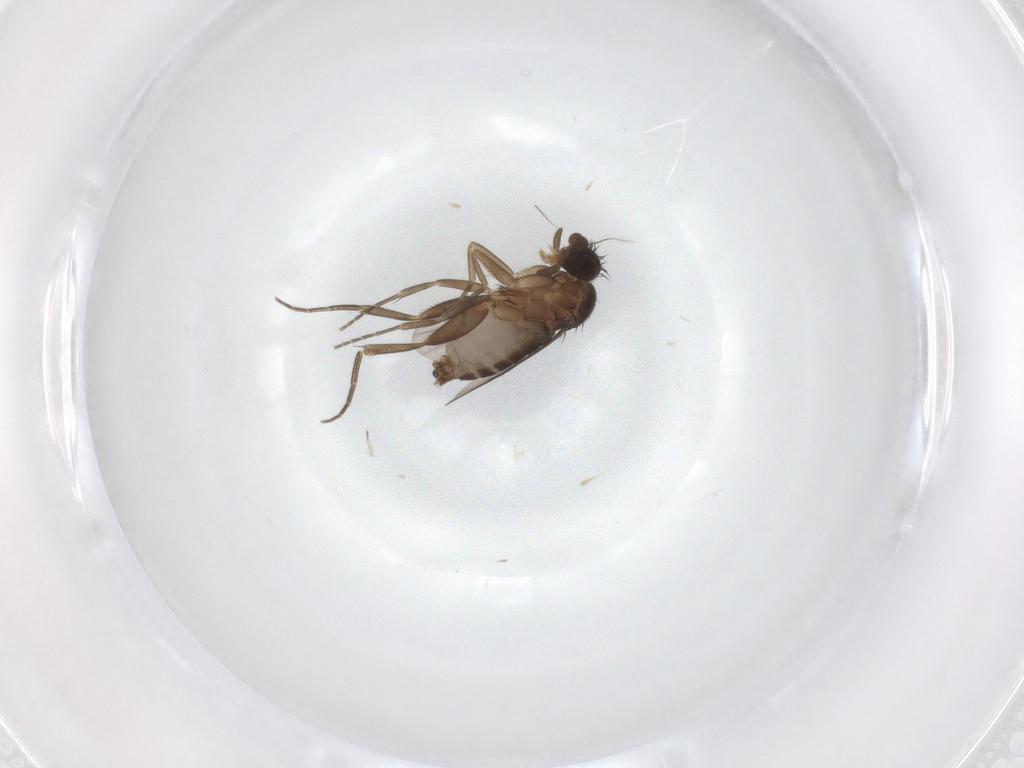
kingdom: Animalia
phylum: Arthropoda
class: Insecta
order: Diptera
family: Phoridae
